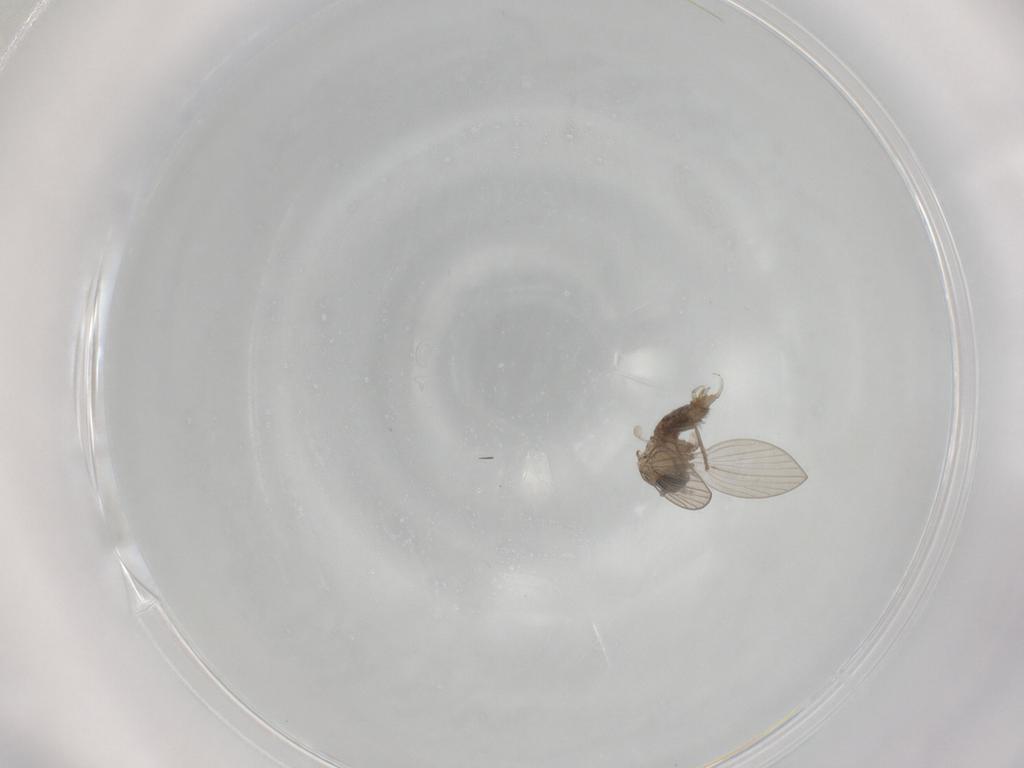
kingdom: Animalia
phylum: Arthropoda
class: Insecta
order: Diptera
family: Psychodidae
